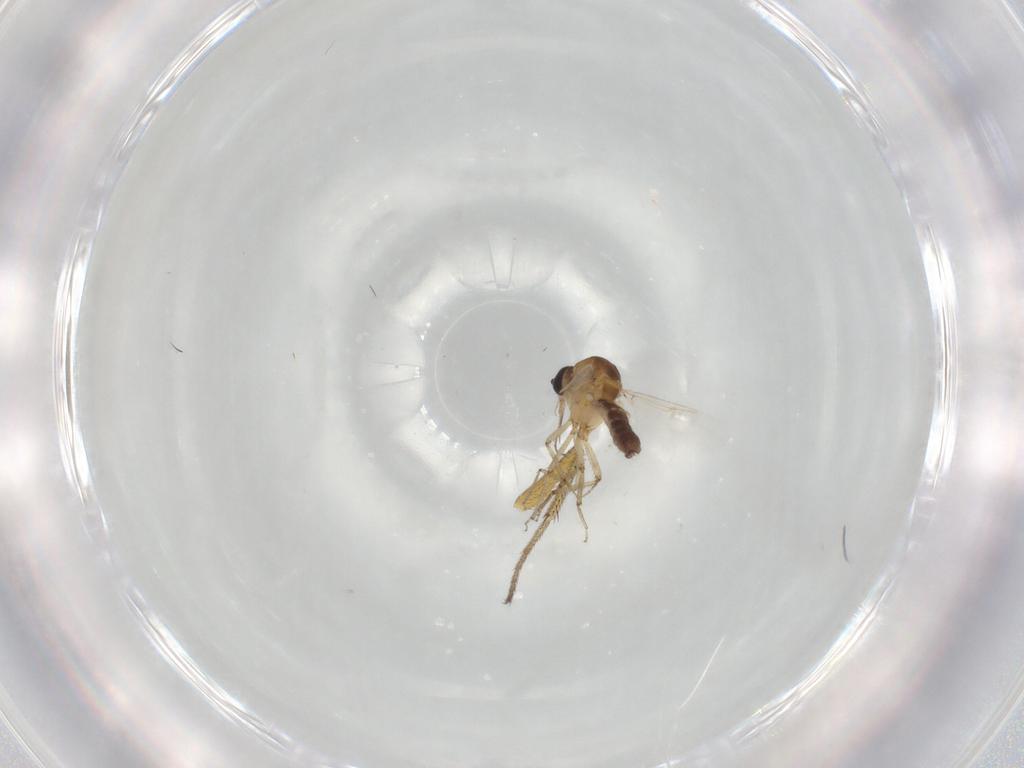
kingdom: Animalia
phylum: Arthropoda
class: Insecta
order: Diptera
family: Ceratopogonidae
